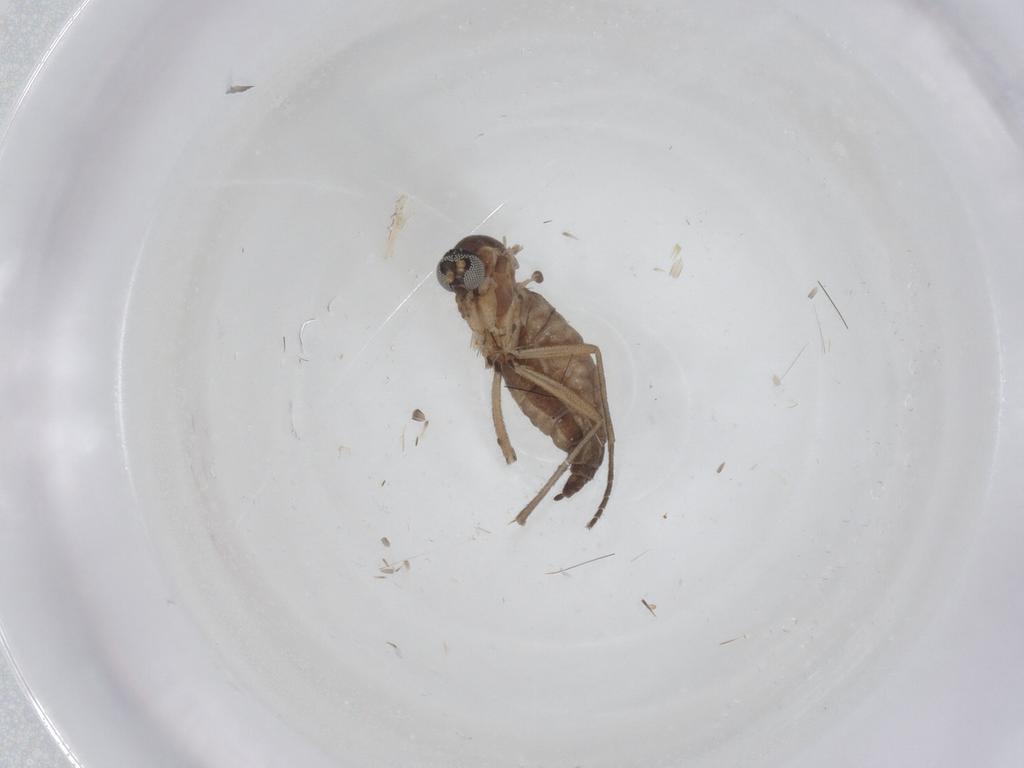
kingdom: Animalia
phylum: Arthropoda
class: Insecta
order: Diptera
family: Sciaridae
